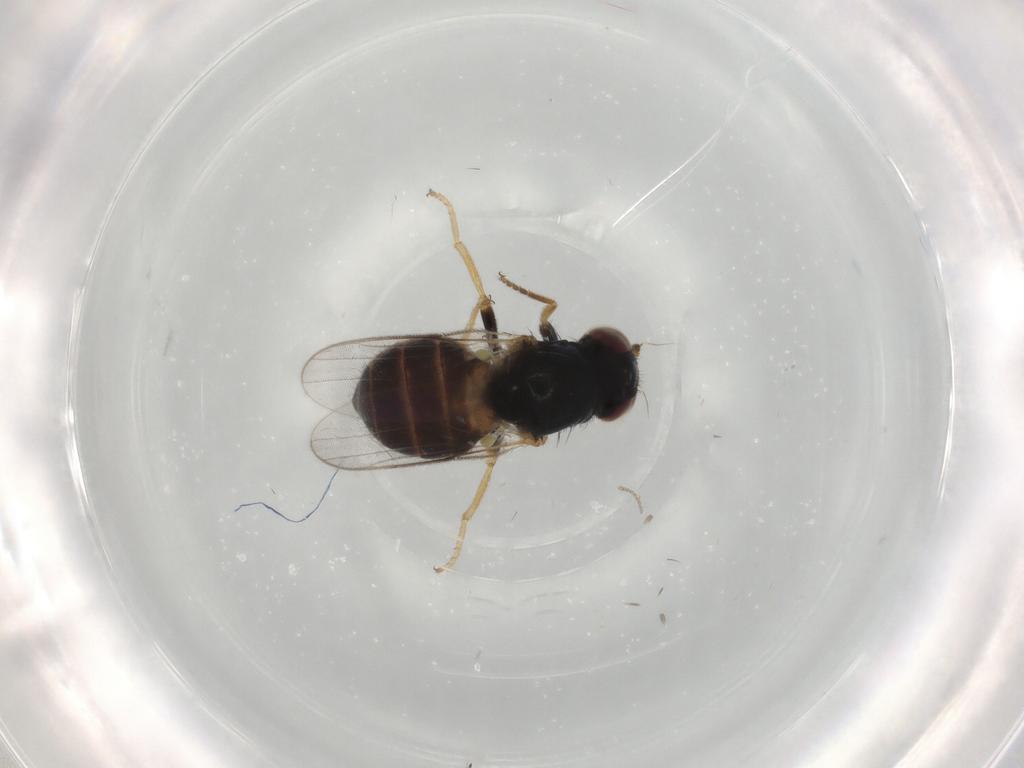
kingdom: Animalia
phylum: Arthropoda
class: Insecta
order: Diptera
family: Chloropidae
